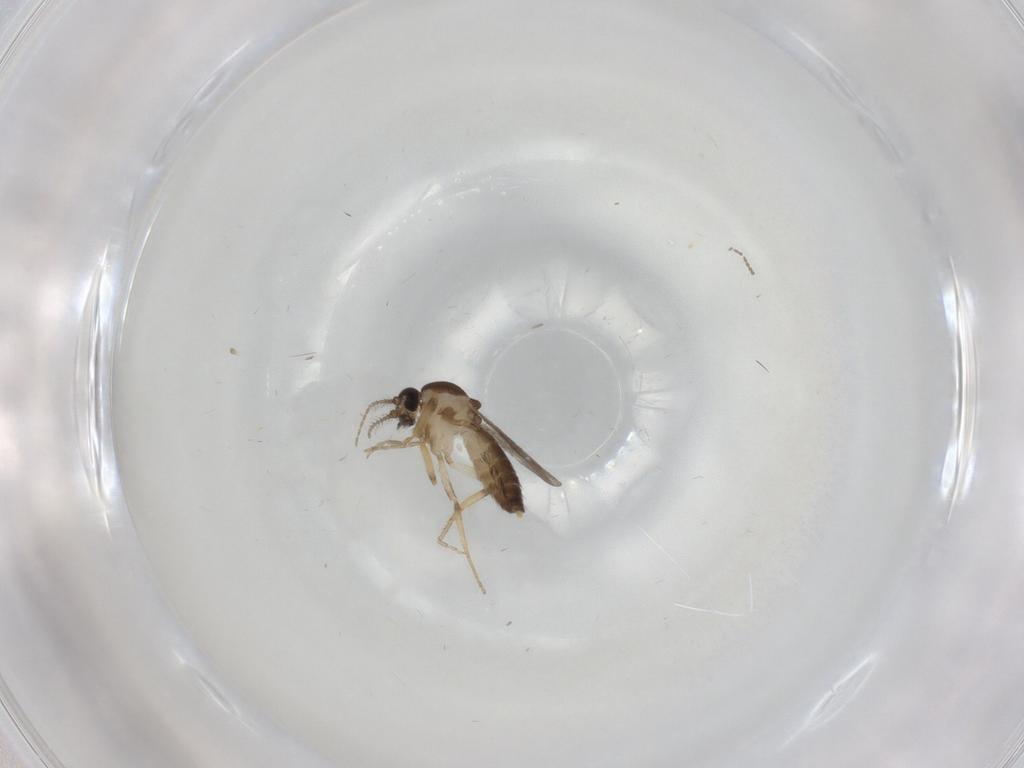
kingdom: Animalia
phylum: Arthropoda
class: Insecta
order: Diptera
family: Ceratopogonidae
